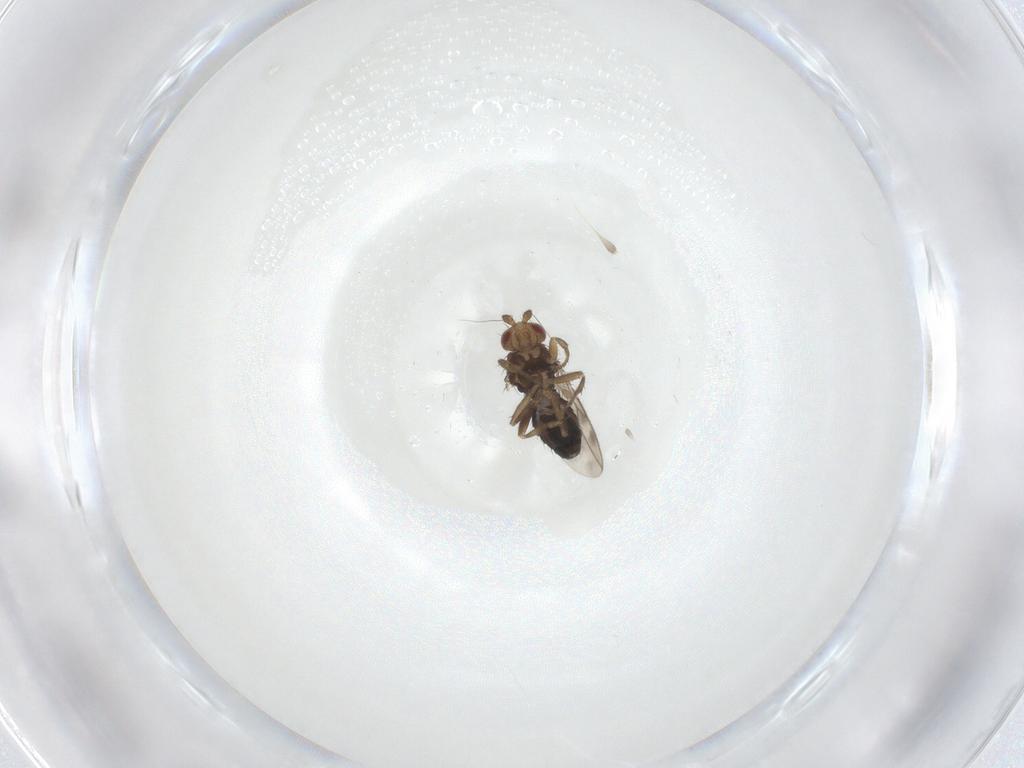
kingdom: Animalia
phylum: Arthropoda
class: Insecta
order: Diptera
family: Sphaeroceridae
